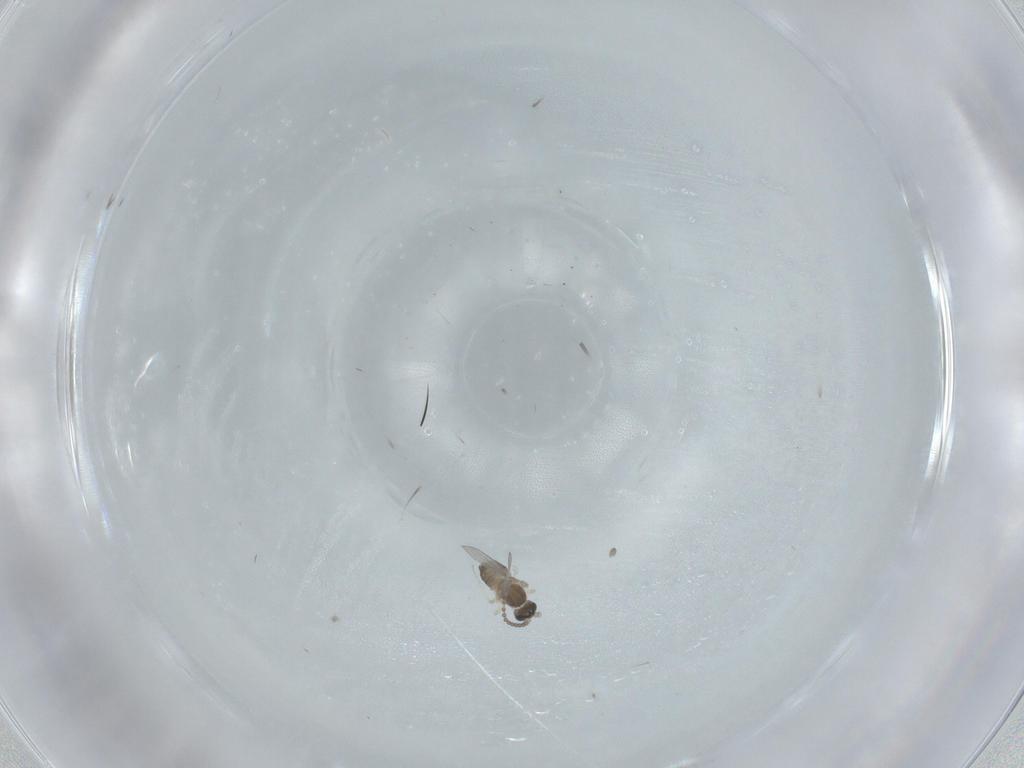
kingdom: Animalia
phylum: Arthropoda
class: Insecta
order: Diptera
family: Cecidomyiidae
